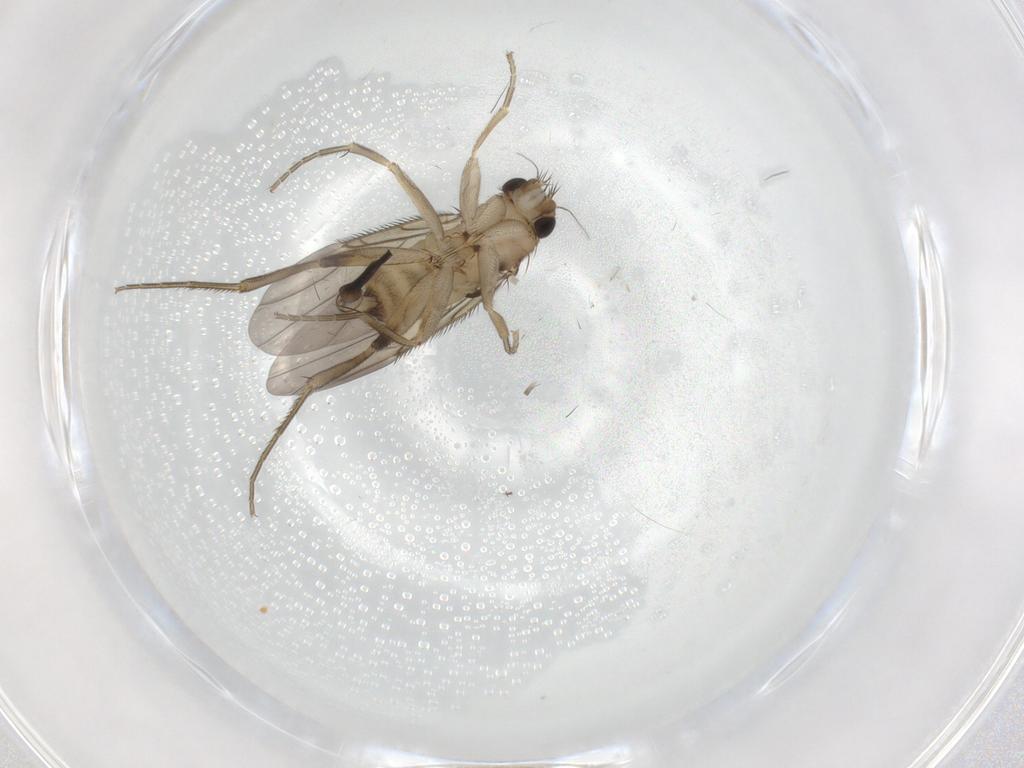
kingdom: Animalia
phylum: Arthropoda
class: Insecta
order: Diptera
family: Phoridae
